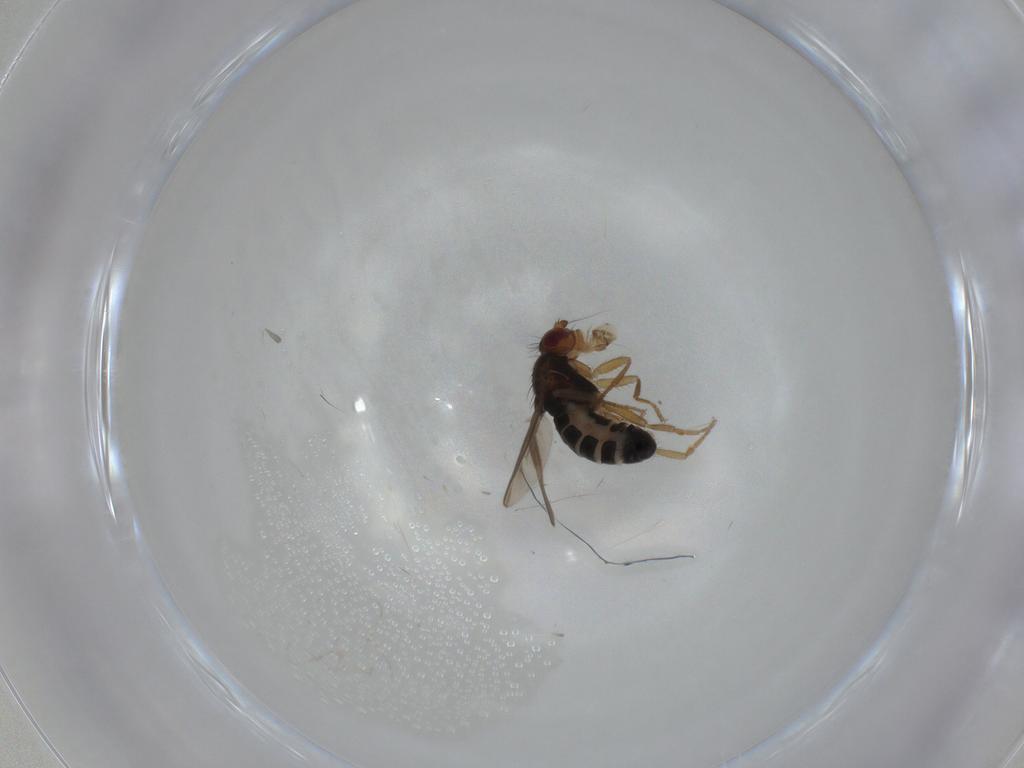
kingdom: Animalia
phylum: Arthropoda
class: Insecta
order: Diptera
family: Sphaeroceridae
